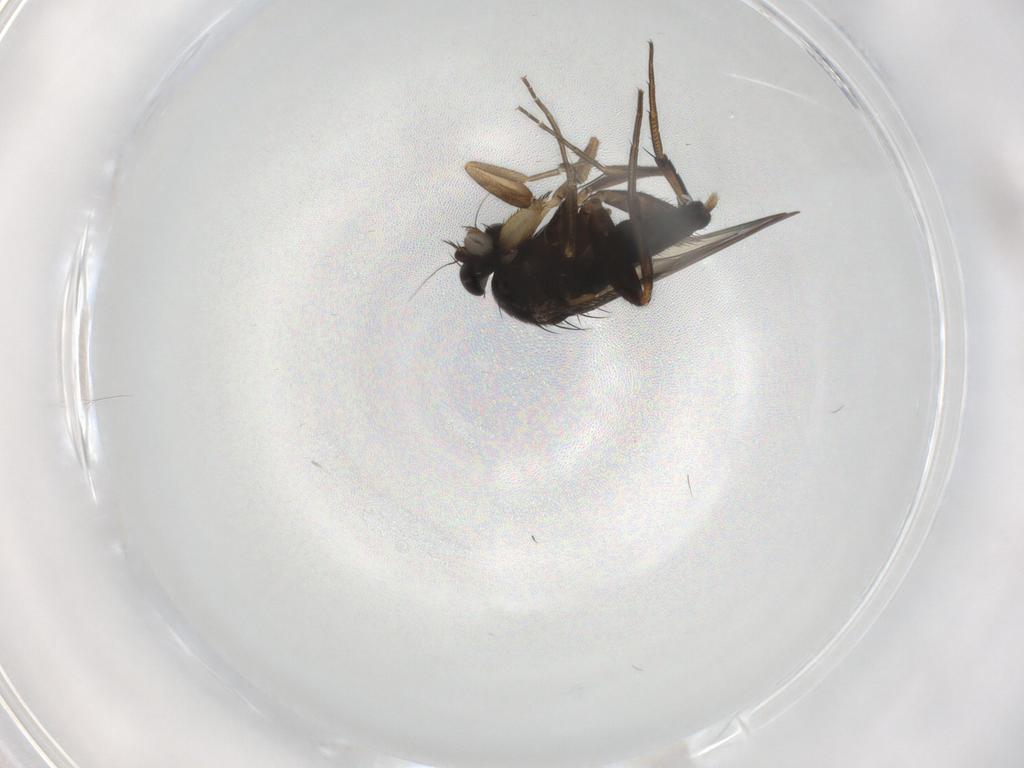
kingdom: Animalia
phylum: Arthropoda
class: Insecta
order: Diptera
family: Phoridae
